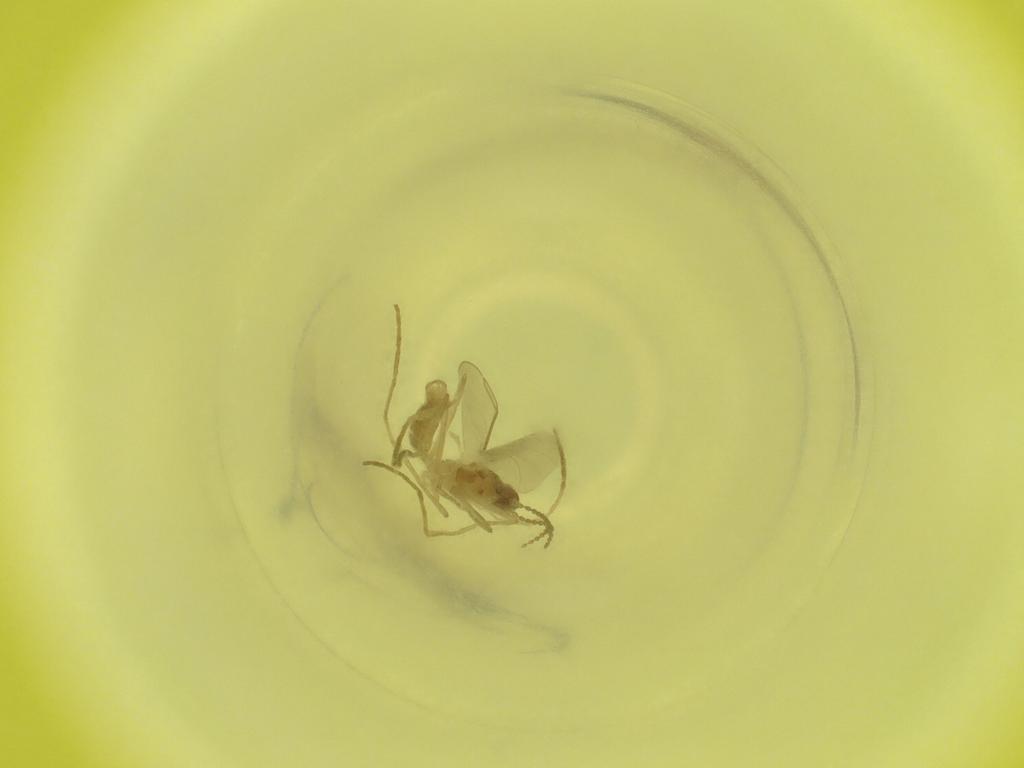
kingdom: Animalia
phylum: Arthropoda
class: Insecta
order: Diptera
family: Cecidomyiidae
